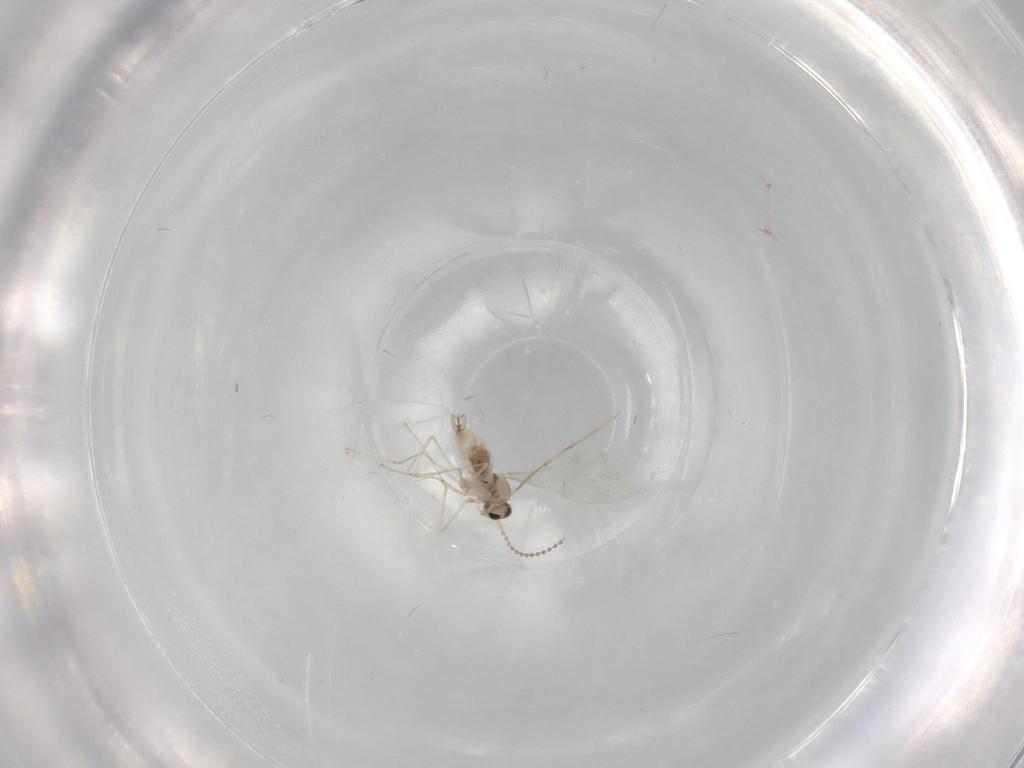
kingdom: Animalia
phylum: Arthropoda
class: Insecta
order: Diptera
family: Cecidomyiidae
